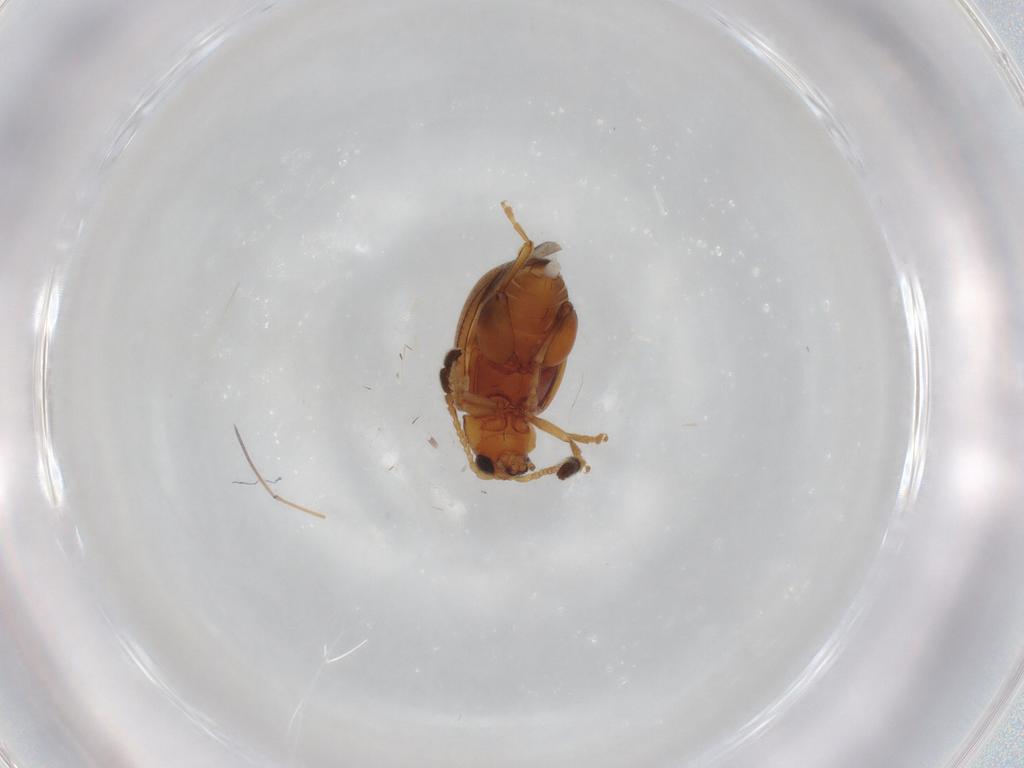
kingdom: Animalia
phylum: Arthropoda
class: Insecta
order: Coleoptera
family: Chrysomelidae
